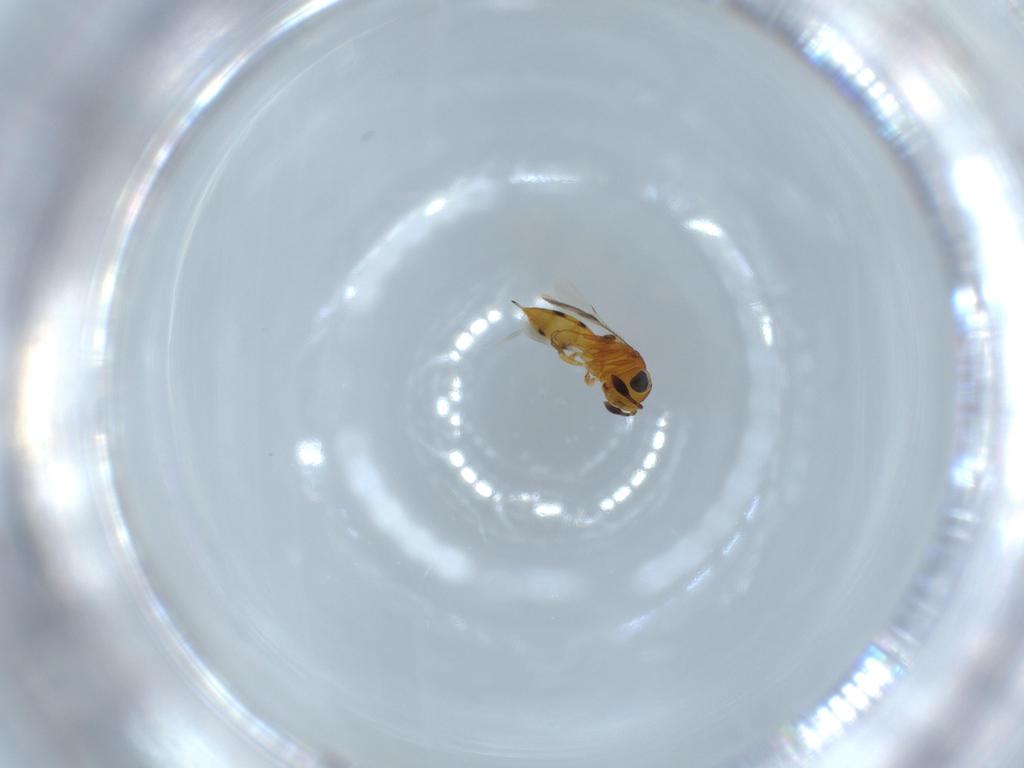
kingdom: Animalia
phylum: Arthropoda
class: Insecta
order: Hymenoptera
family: Scelionidae
